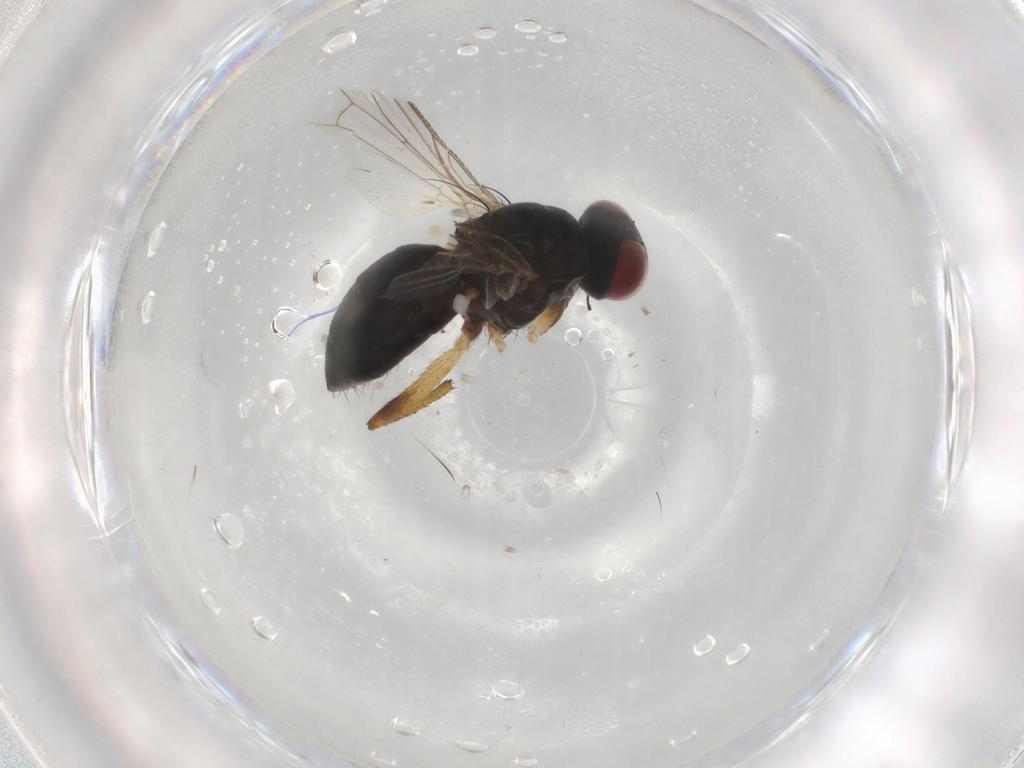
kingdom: Animalia
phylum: Arthropoda
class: Insecta
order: Diptera
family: Muscidae
